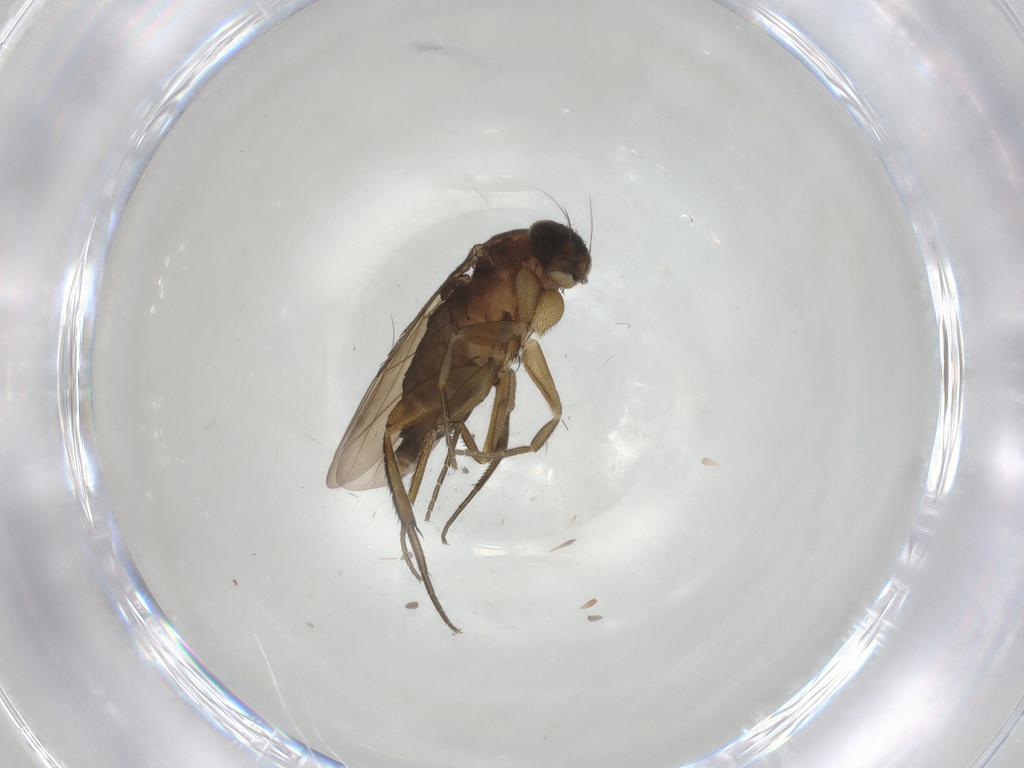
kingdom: Animalia
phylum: Arthropoda
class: Insecta
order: Diptera
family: Phoridae
